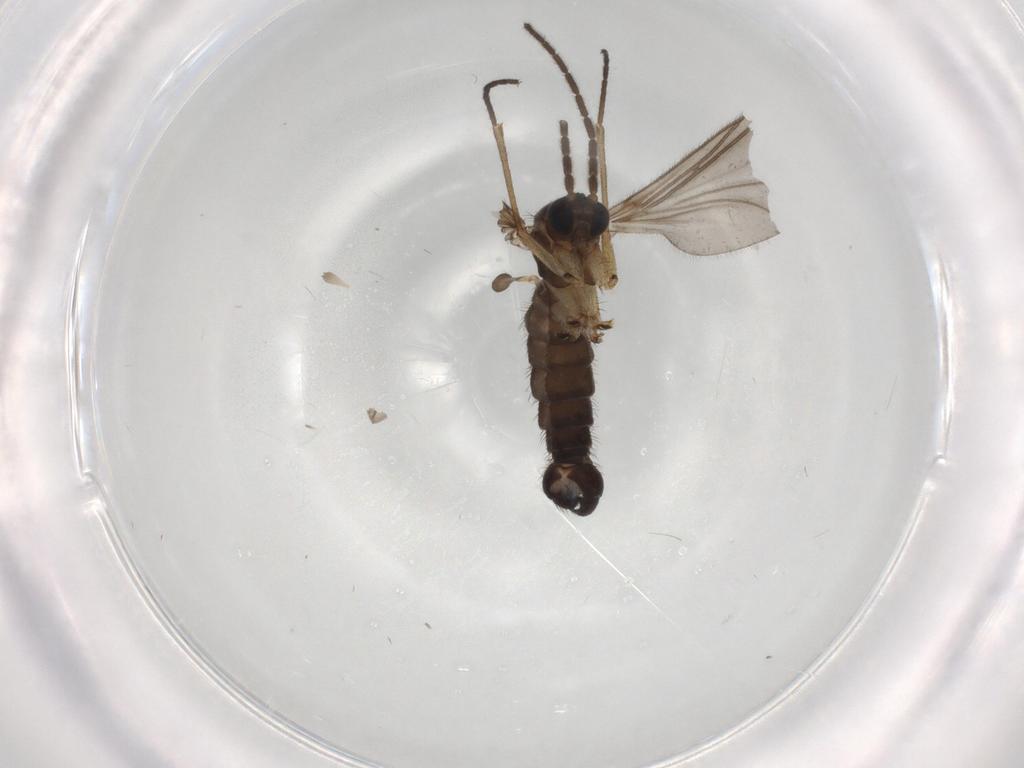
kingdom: Animalia
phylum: Arthropoda
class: Insecta
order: Diptera
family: Sciaridae
